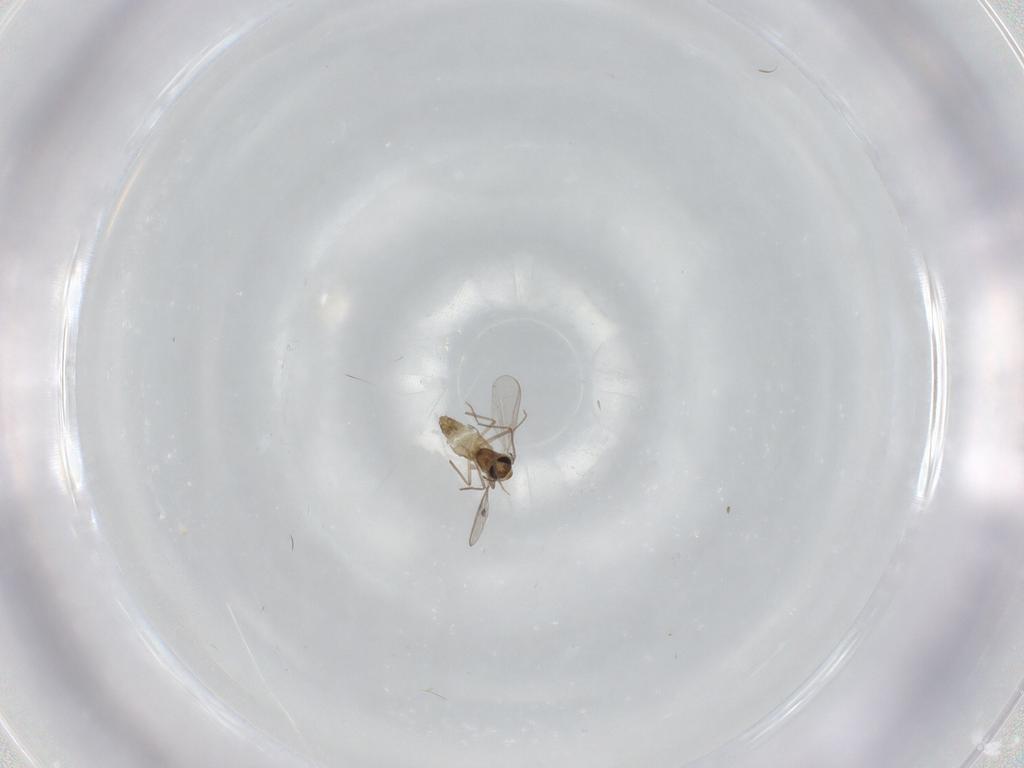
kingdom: Animalia
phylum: Arthropoda
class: Insecta
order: Diptera
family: Chironomidae
